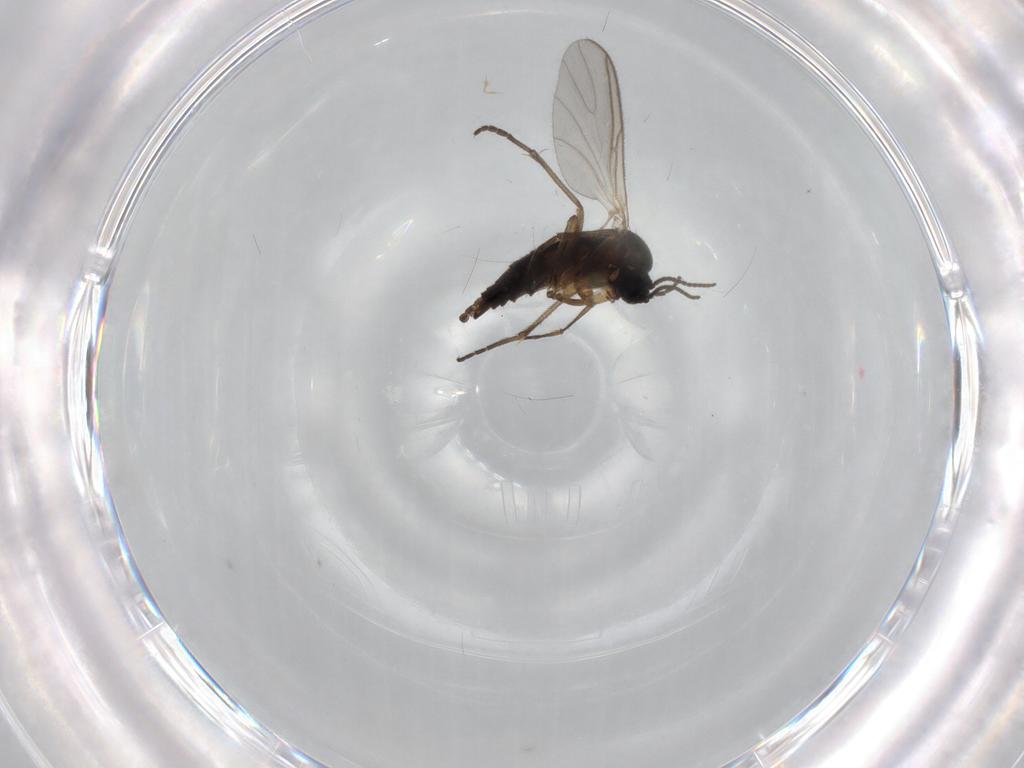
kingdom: Animalia
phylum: Arthropoda
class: Insecta
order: Diptera
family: Sciaridae
